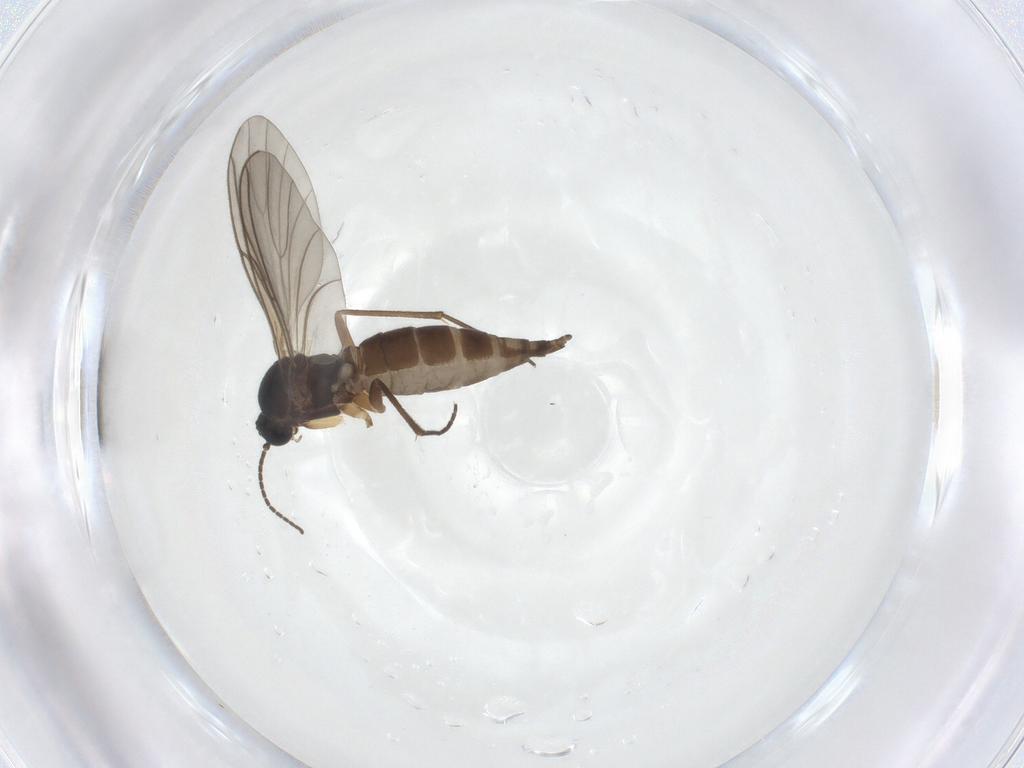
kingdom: Animalia
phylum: Arthropoda
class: Insecta
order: Diptera
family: Sciaridae
